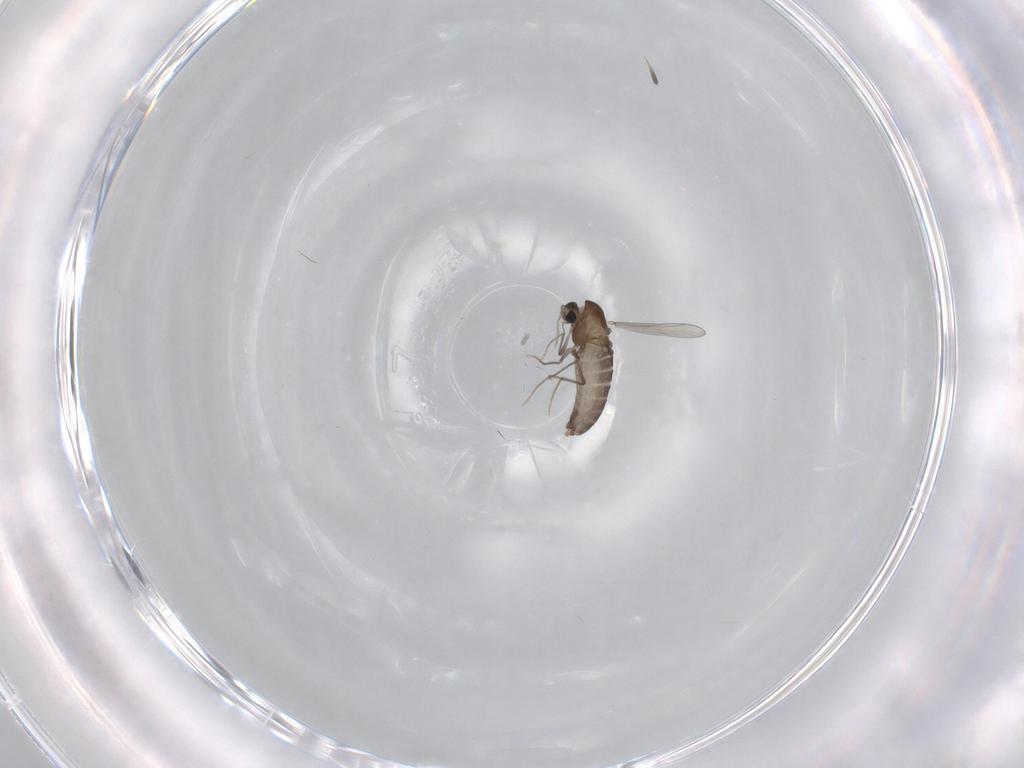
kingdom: Animalia
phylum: Arthropoda
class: Insecta
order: Diptera
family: Chironomidae
